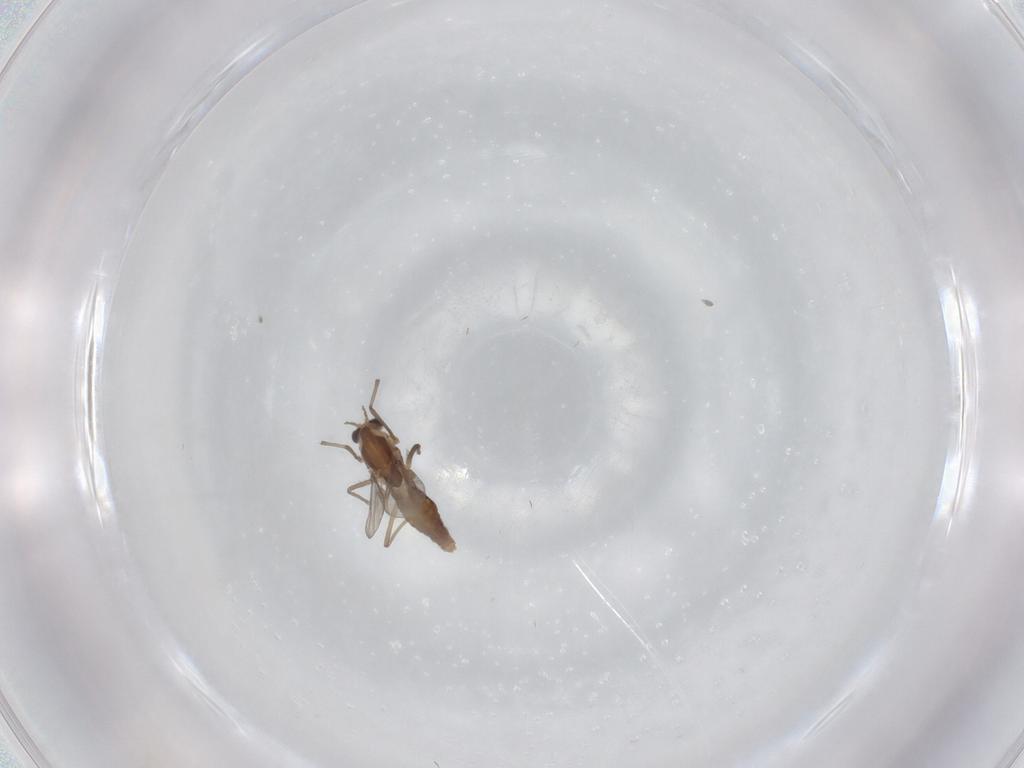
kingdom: Animalia
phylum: Arthropoda
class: Insecta
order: Diptera
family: Chironomidae
